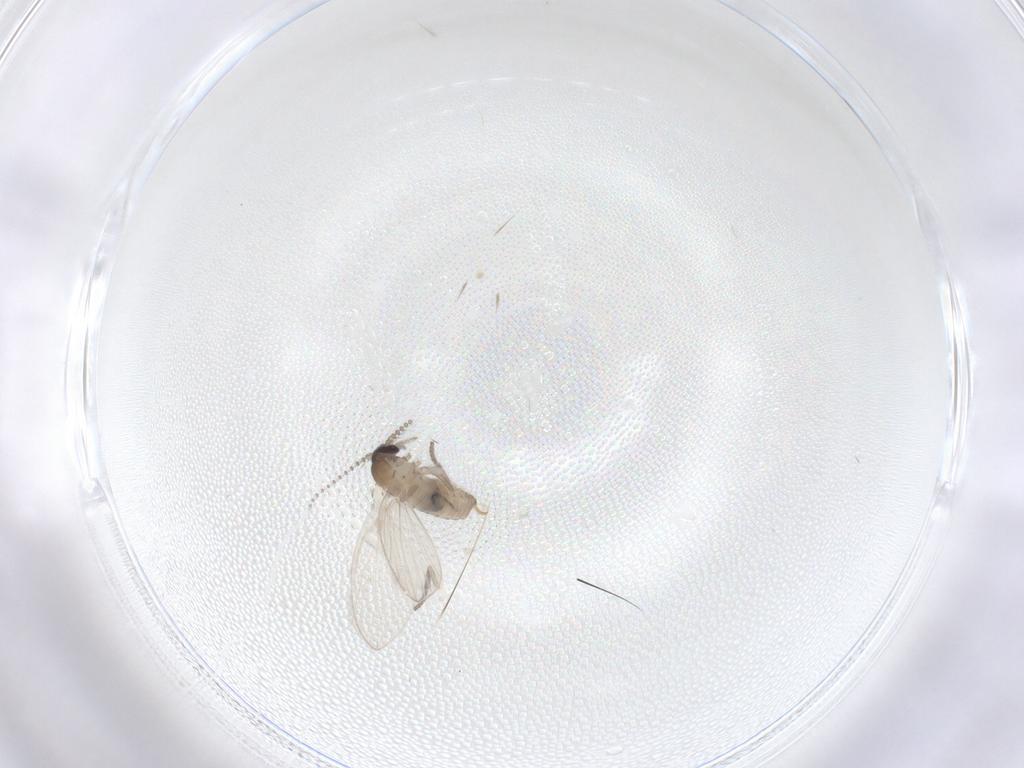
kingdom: Animalia
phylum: Arthropoda
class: Insecta
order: Diptera
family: Psychodidae
